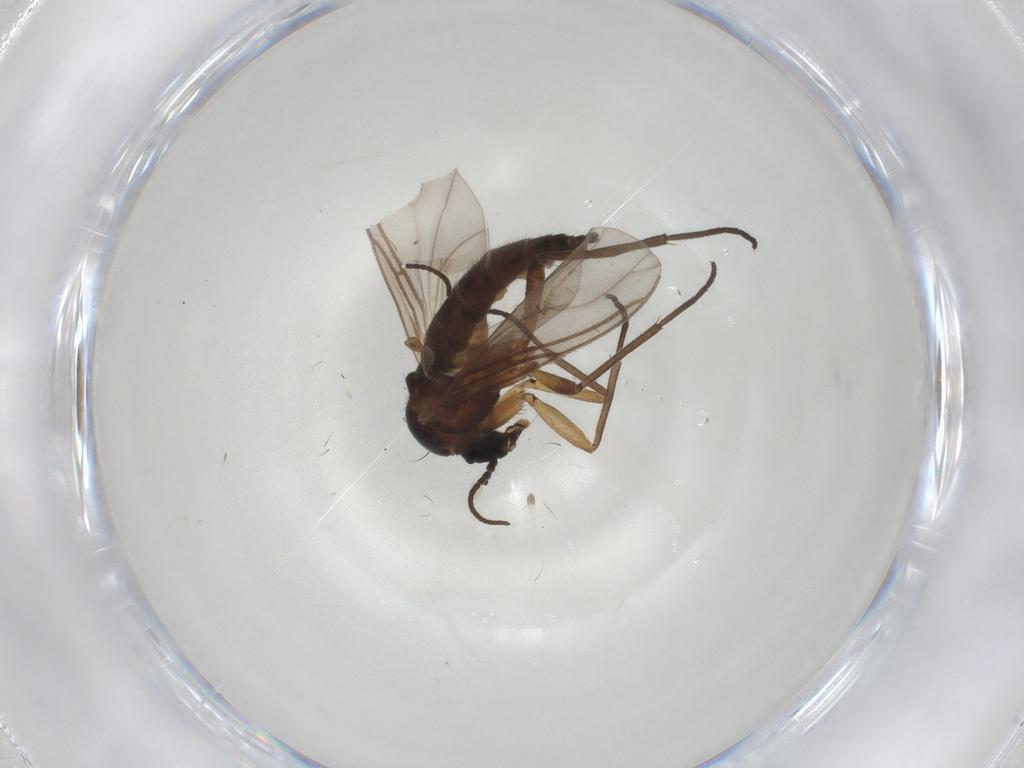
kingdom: Animalia
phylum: Arthropoda
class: Insecta
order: Diptera
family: Sciaridae
